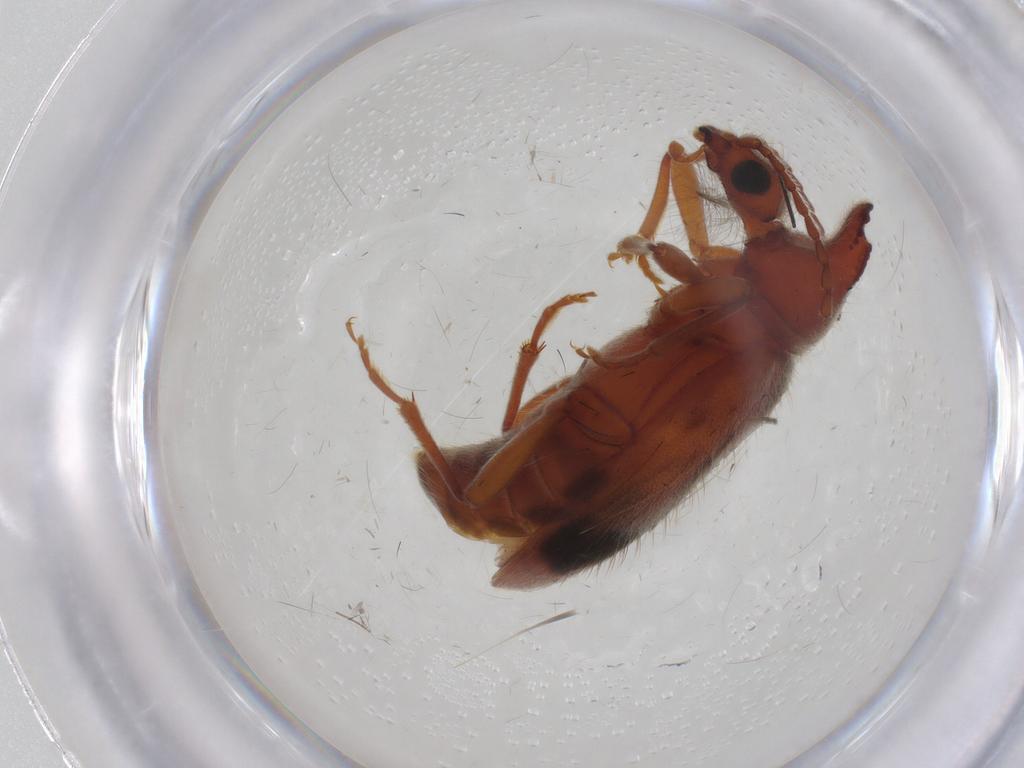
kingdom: Animalia
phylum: Arthropoda
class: Insecta
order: Coleoptera
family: Anthicidae
